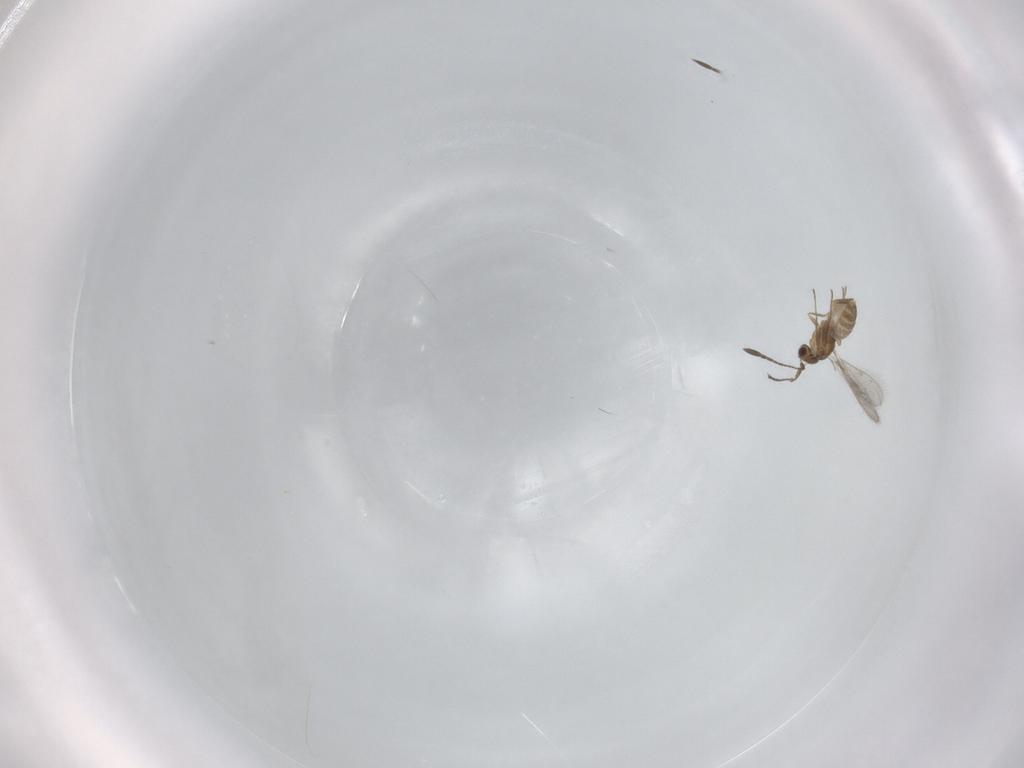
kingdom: Animalia
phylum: Arthropoda
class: Insecta
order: Hymenoptera
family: Mymaridae
